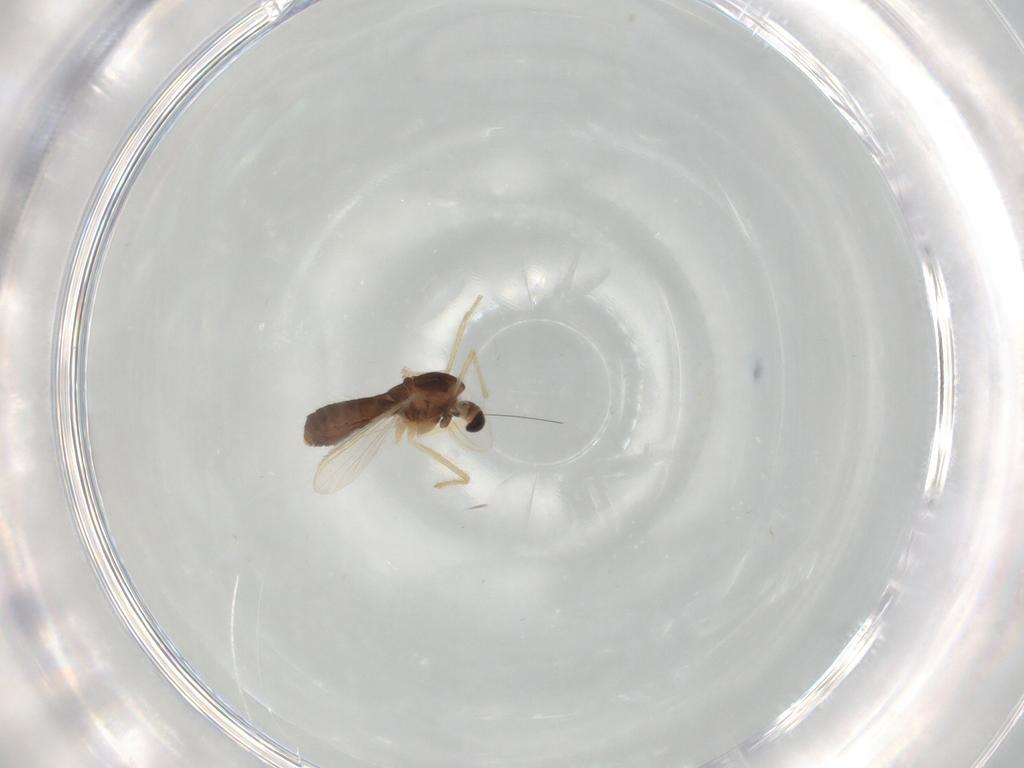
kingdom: Animalia
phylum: Arthropoda
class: Insecta
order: Diptera
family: Chironomidae
